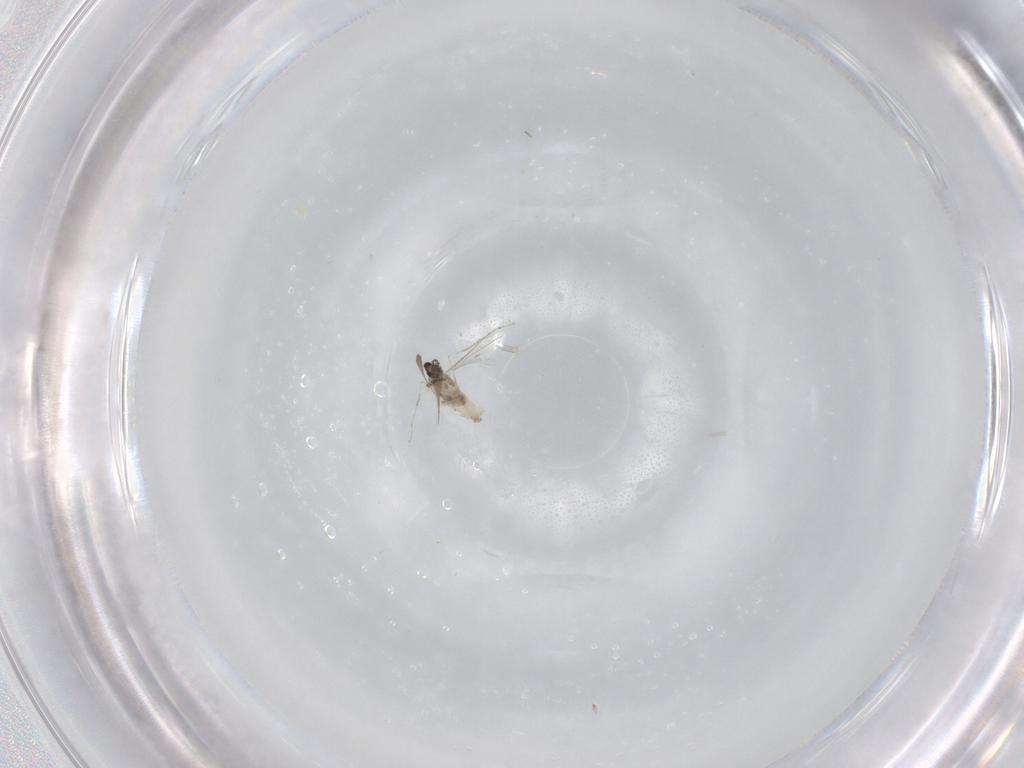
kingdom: Animalia
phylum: Arthropoda
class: Insecta
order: Diptera
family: Cecidomyiidae
